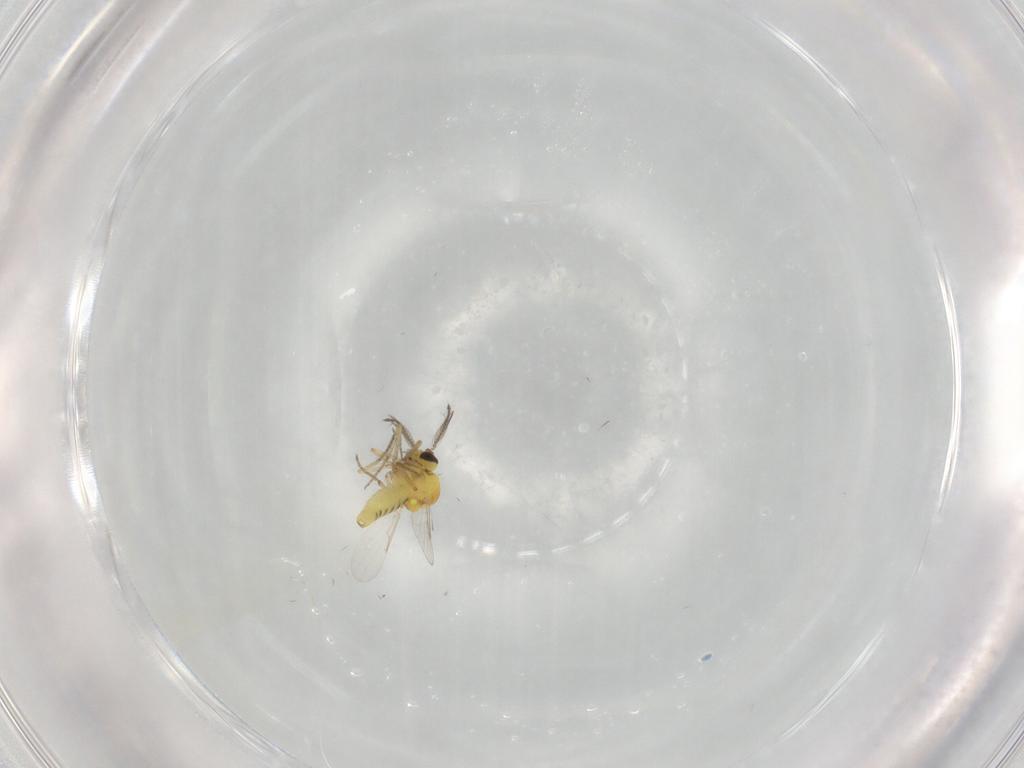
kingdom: Animalia
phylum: Arthropoda
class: Insecta
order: Diptera
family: Ceratopogonidae
